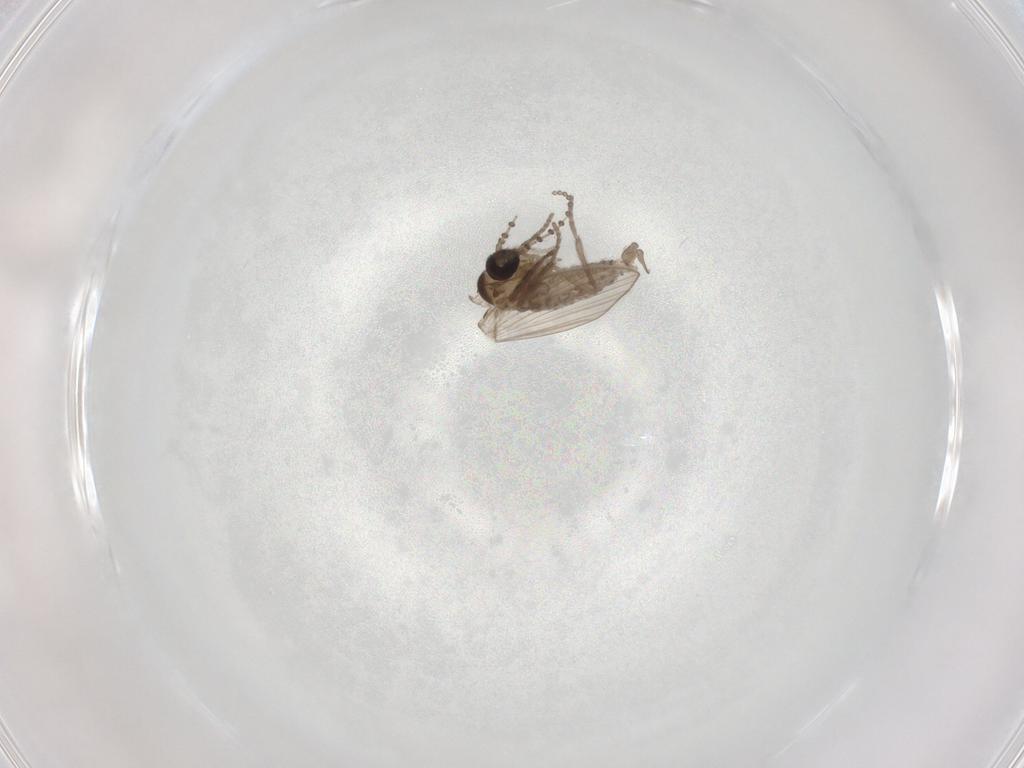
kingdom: Animalia
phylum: Arthropoda
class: Insecta
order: Diptera
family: Psychodidae
